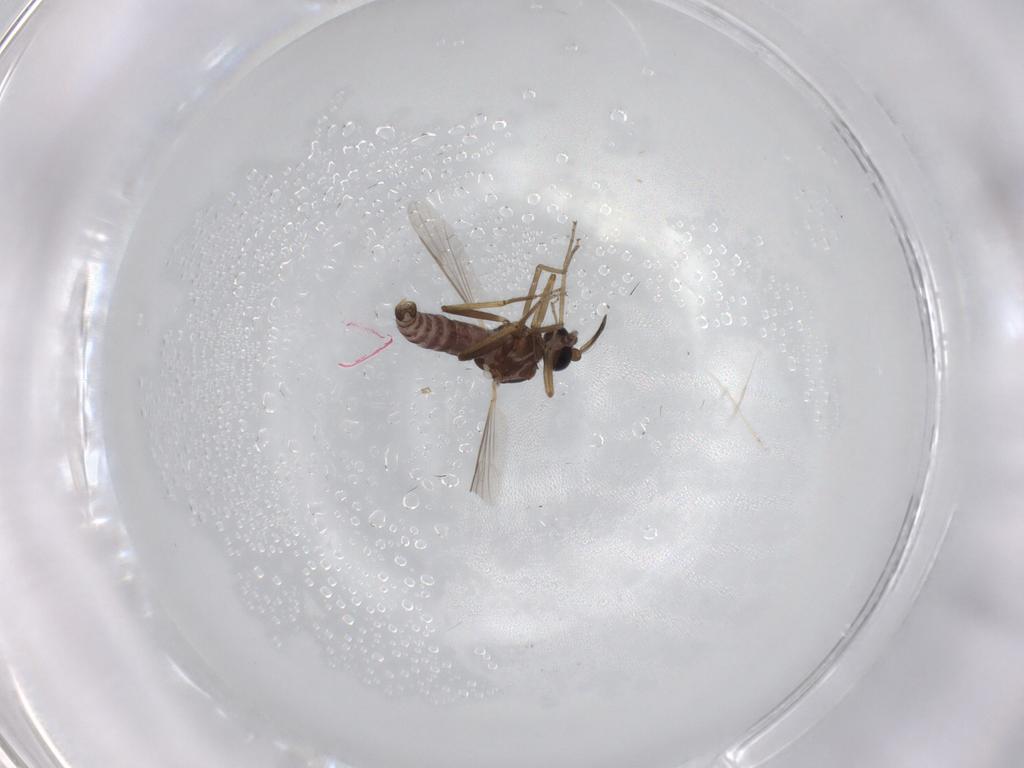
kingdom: Animalia
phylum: Arthropoda
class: Insecta
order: Diptera
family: Ceratopogonidae
